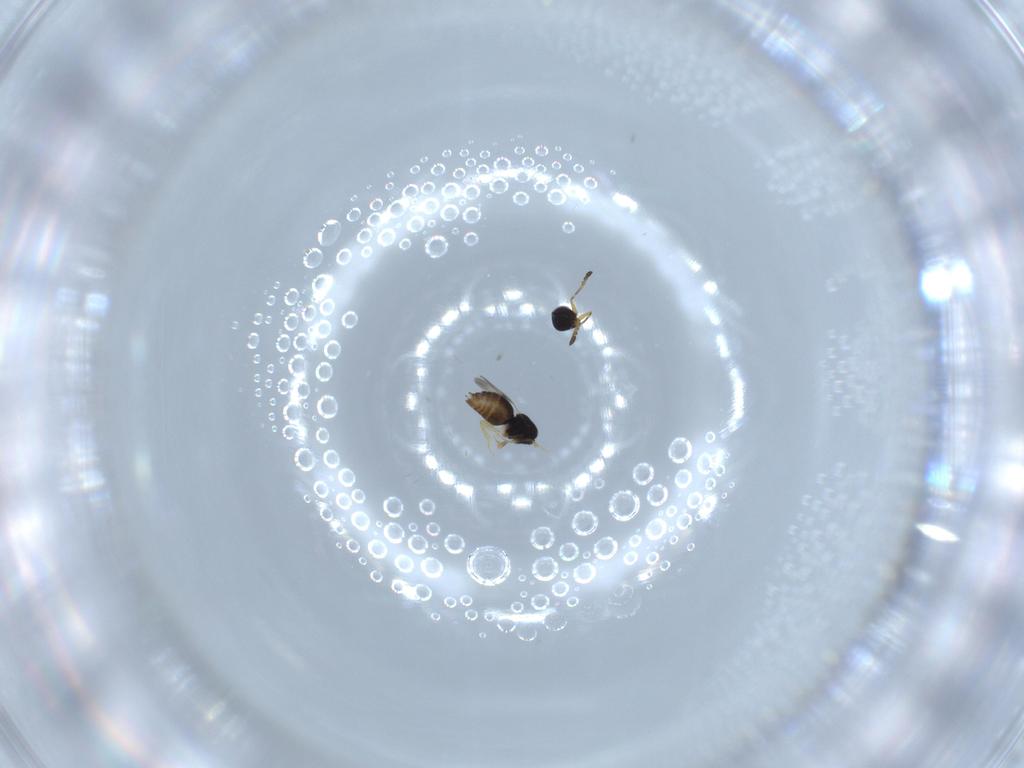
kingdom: Animalia
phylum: Arthropoda
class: Insecta
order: Hymenoptera
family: Bethylidae
